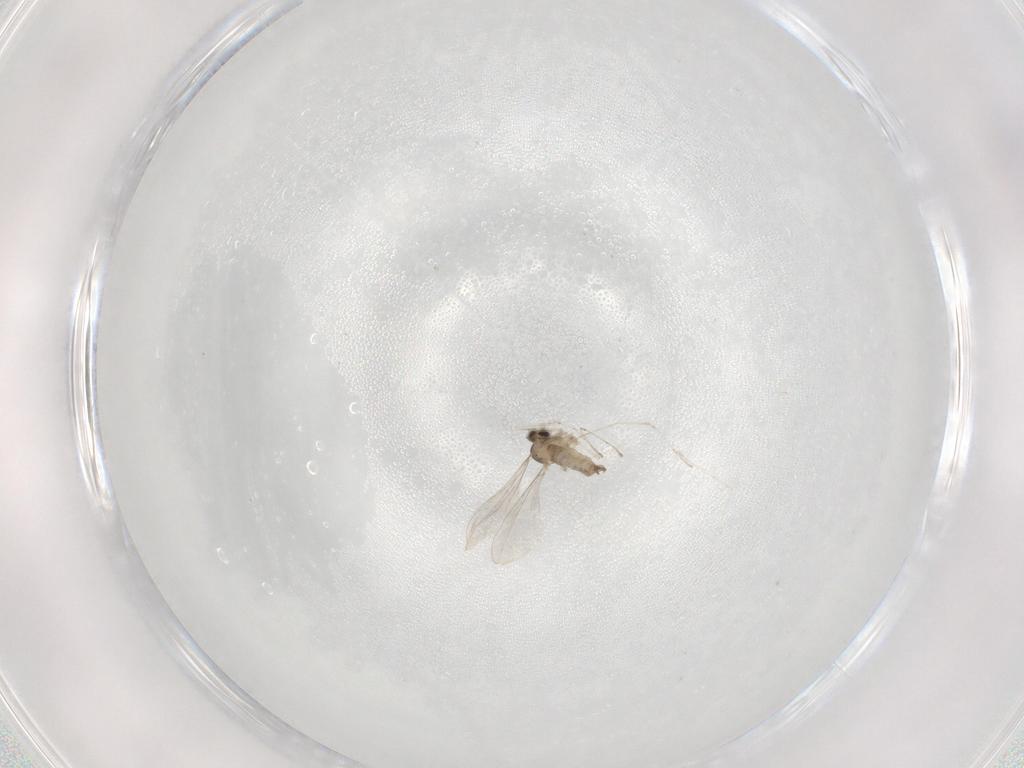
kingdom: Animalia
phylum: Arthropoda
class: Insecta
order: Diptera
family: Cecidomyiidae
